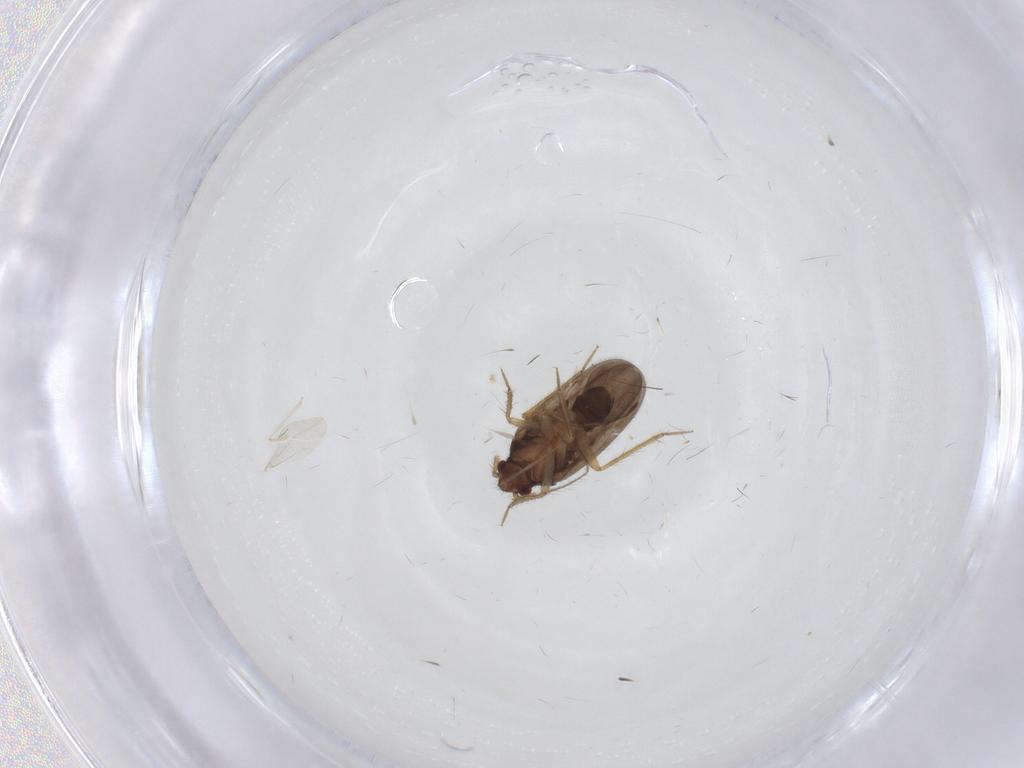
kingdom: Animalia
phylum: Arthropoda
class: Insecta
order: Hemiptera
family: Ceratocombidae
